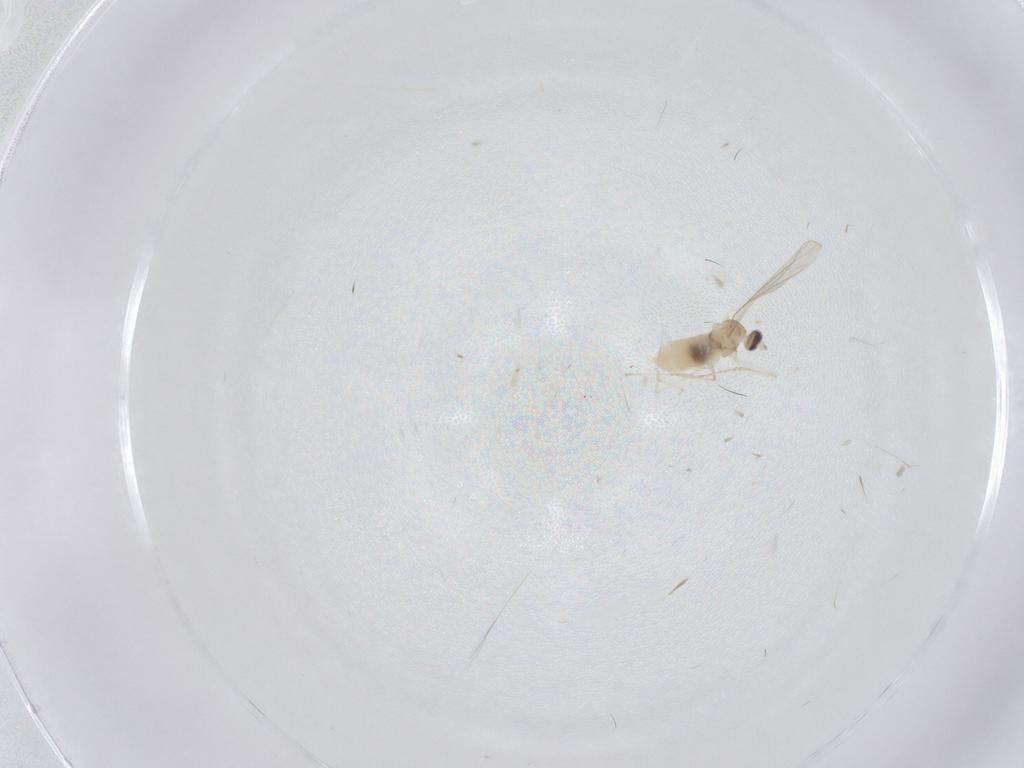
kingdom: Animalia
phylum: Arthropoda
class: Insecta
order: Diptera
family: Cecidomyiidae
